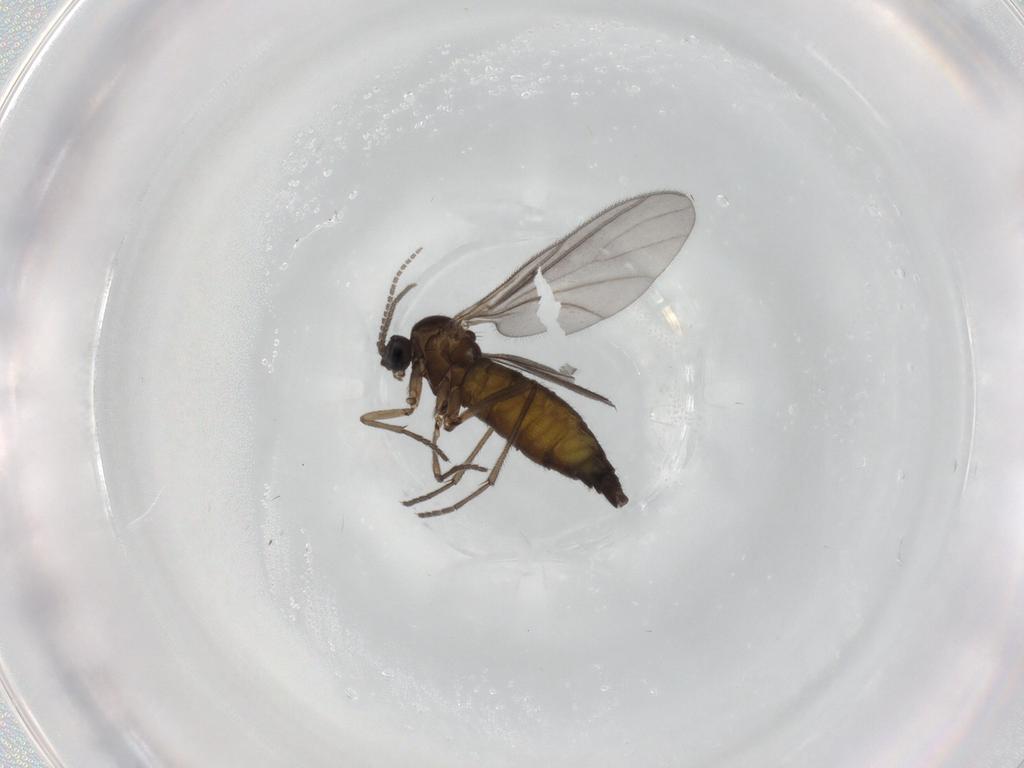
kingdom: Animalia
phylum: Arthropoda
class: Insecta
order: Diptera
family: Sciaridae
